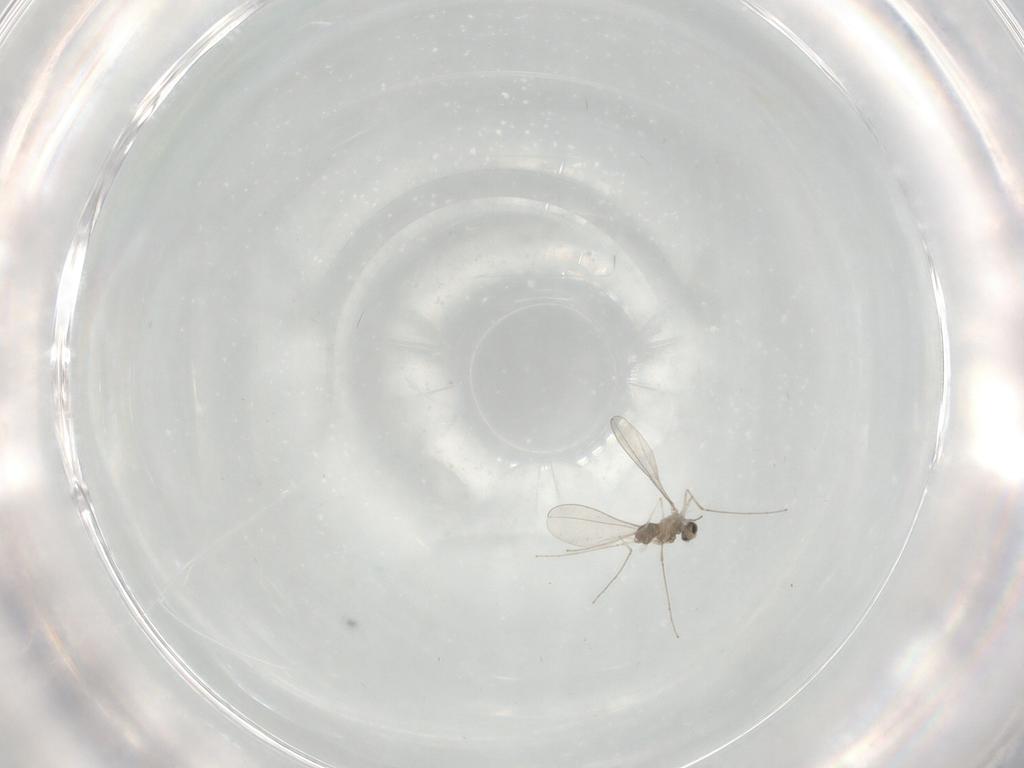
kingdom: Animalia
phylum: Arthropoda
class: Insecta
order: Diptera
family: Cecidomyiidae
